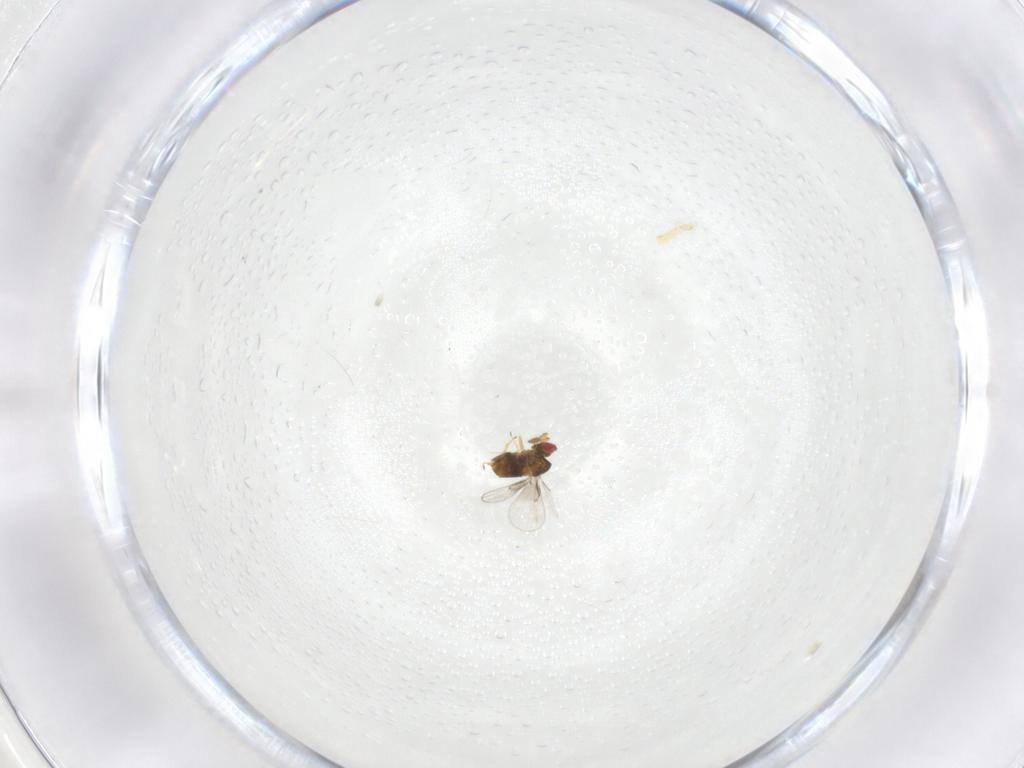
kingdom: Animalia
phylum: Arthropoda
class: Insecta
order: Hymenoptera
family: Trichogrammatidae
